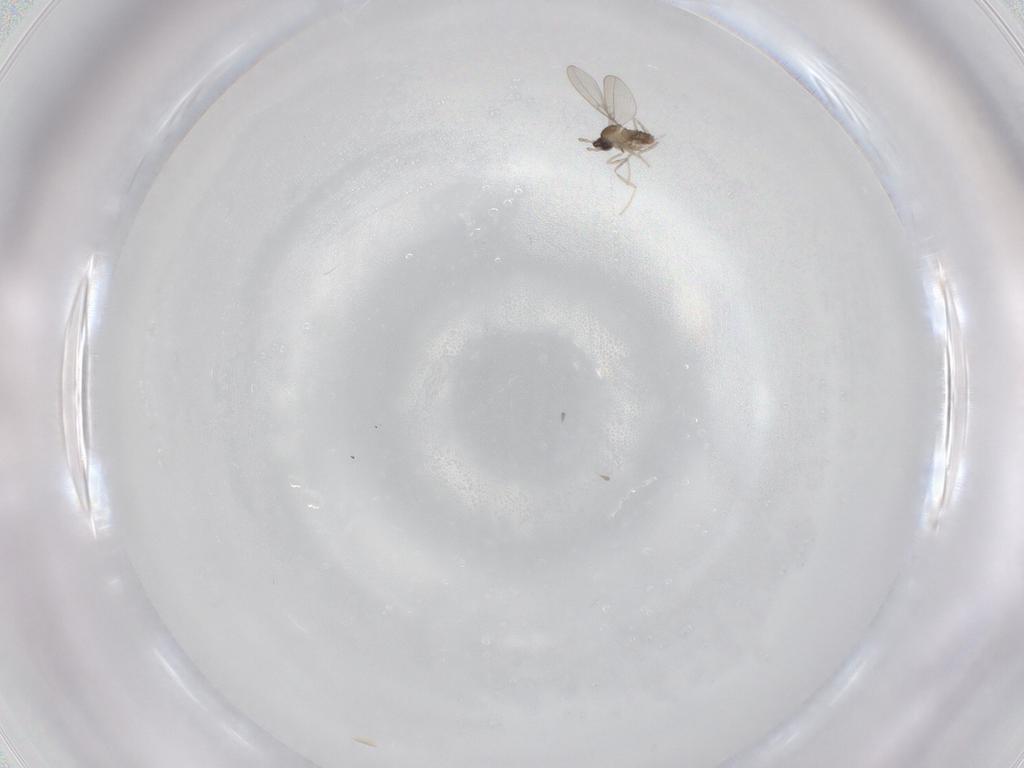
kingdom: Animalia
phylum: Arthropoda
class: Insecta
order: Diptera
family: Cecidomyiidae
